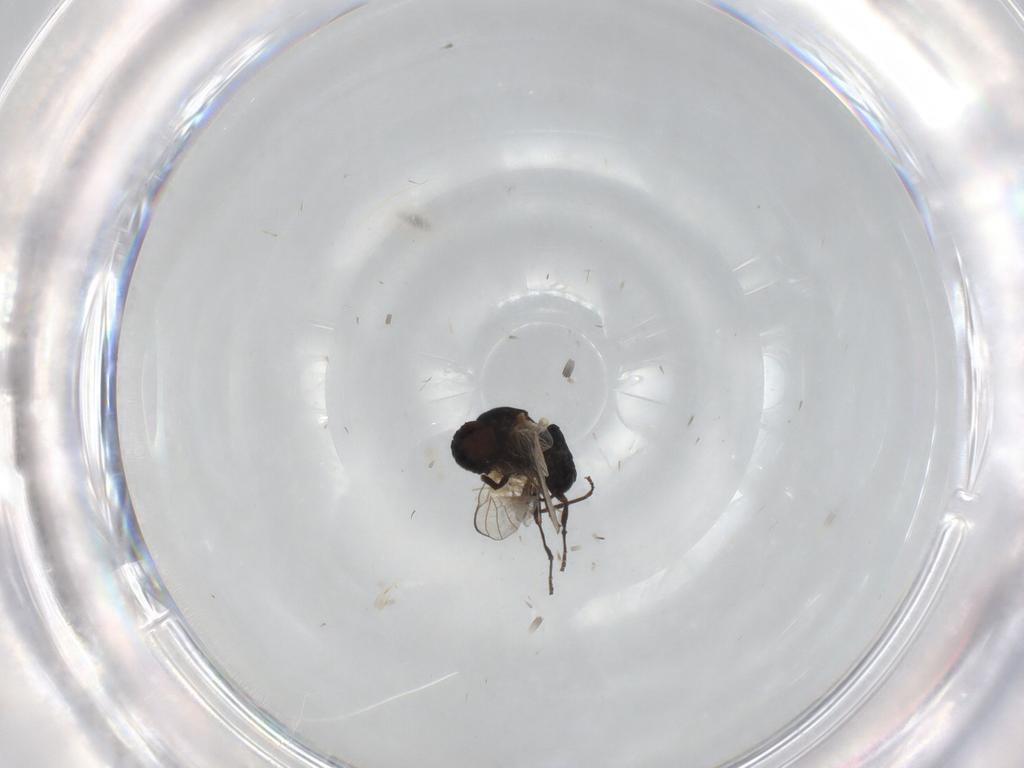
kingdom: Animalia
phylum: Arthropoda
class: Insecta
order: Diptera
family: Agromyzidae
